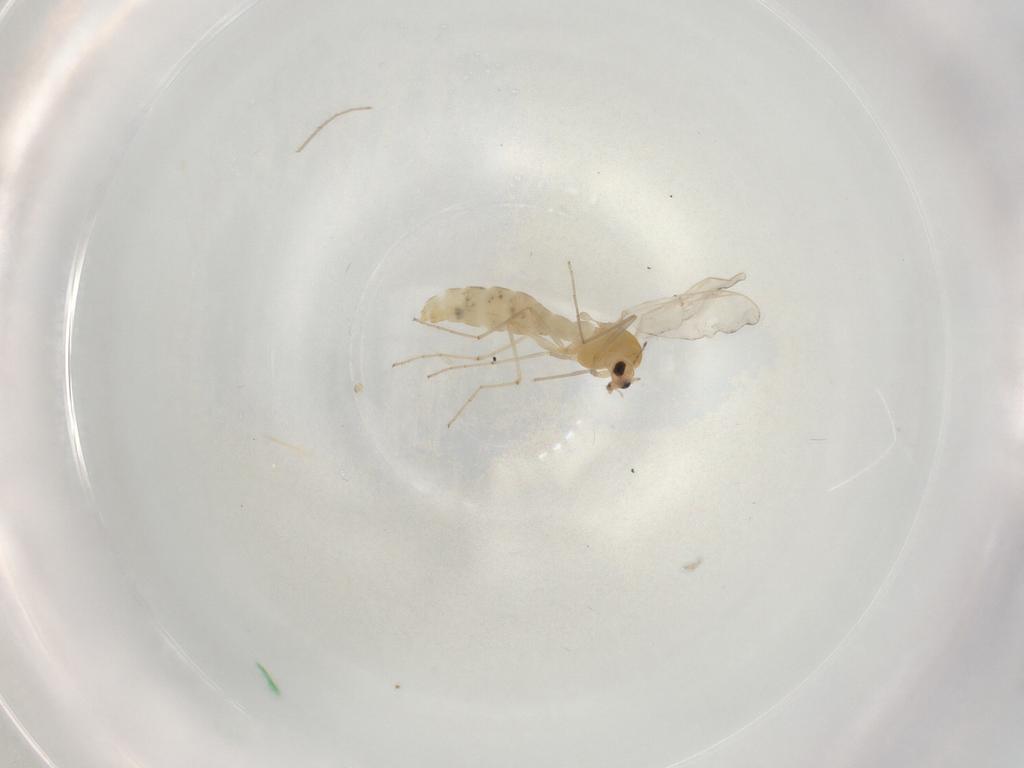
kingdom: Animalia
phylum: Arthropoda
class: Insecta
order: Diptera
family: Chironomidae
